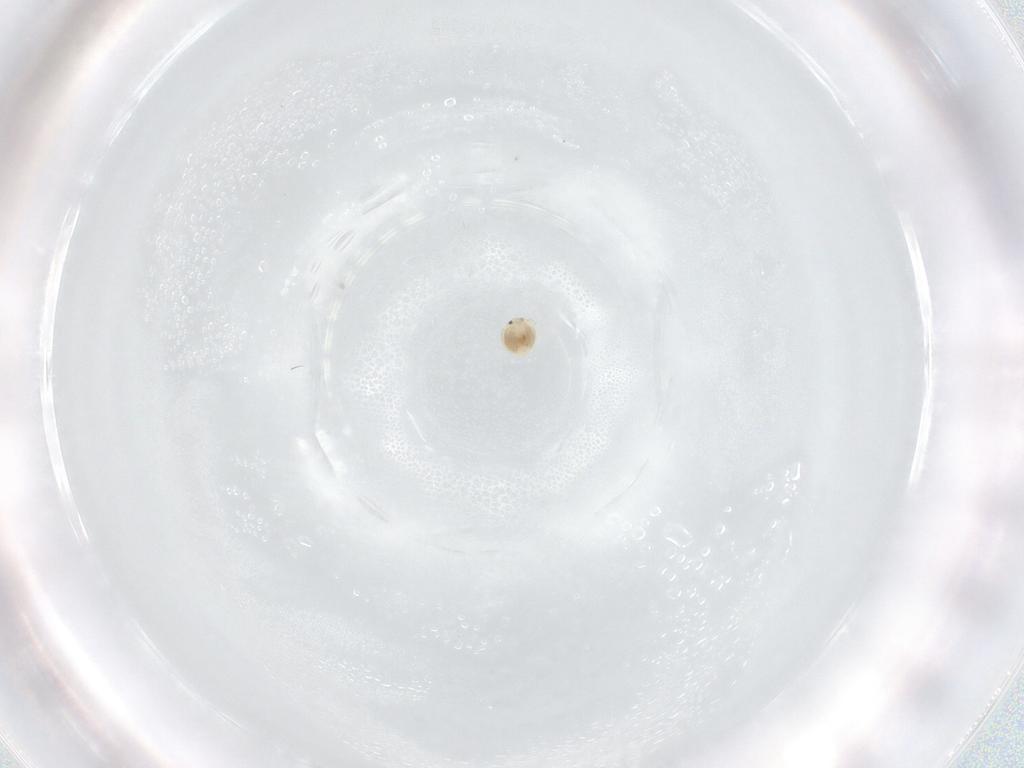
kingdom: Animalia
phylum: Arthropoda
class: Arachnida
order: Trombidiformes
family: Unionicolidae
